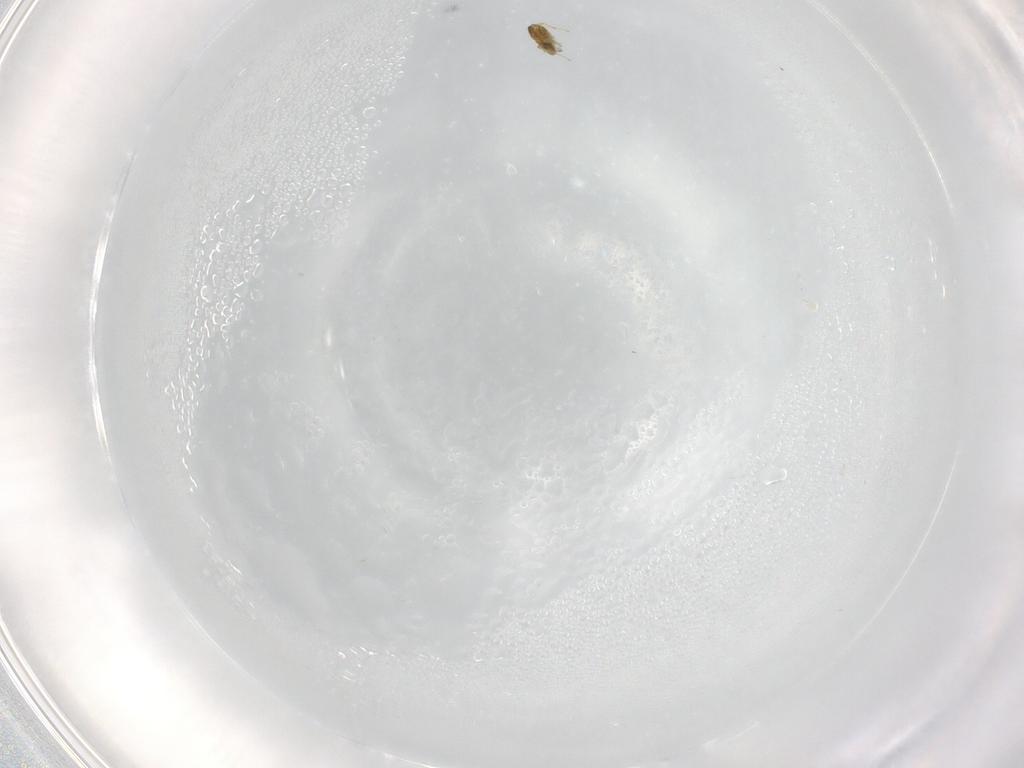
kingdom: Animalia
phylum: Arthropoda
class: Insecta
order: Hymenoptera
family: Trichogrammatidae
